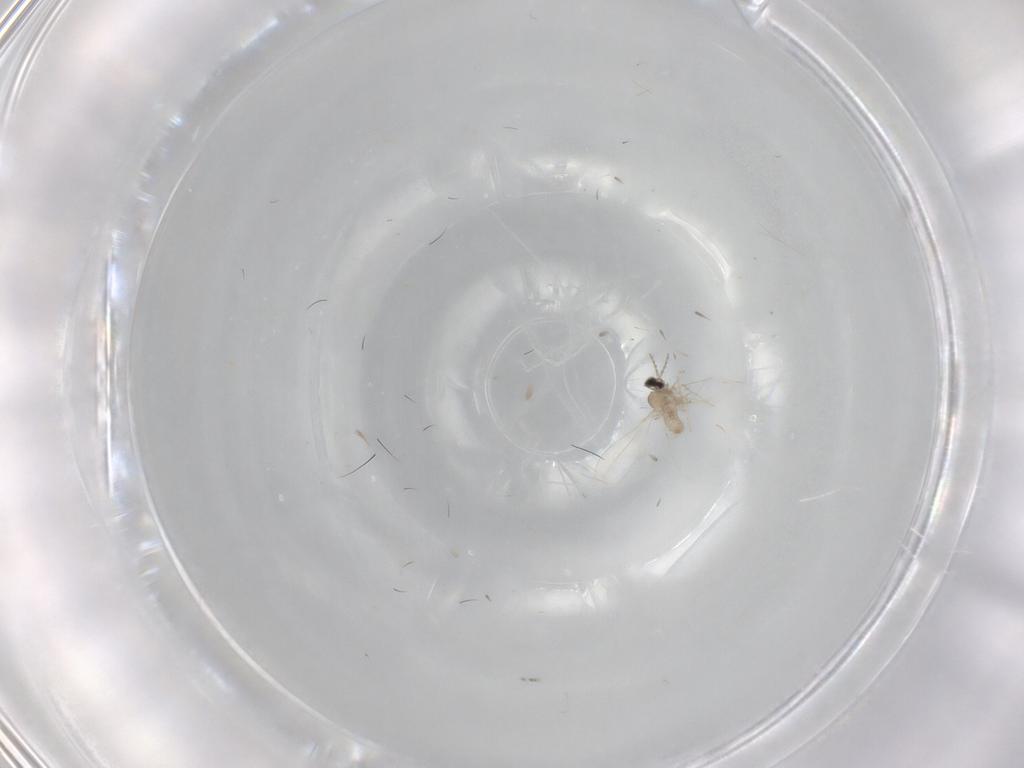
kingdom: Animalia
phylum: Arthropoda
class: Insecta
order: Diptera
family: Cecidomyiidae
